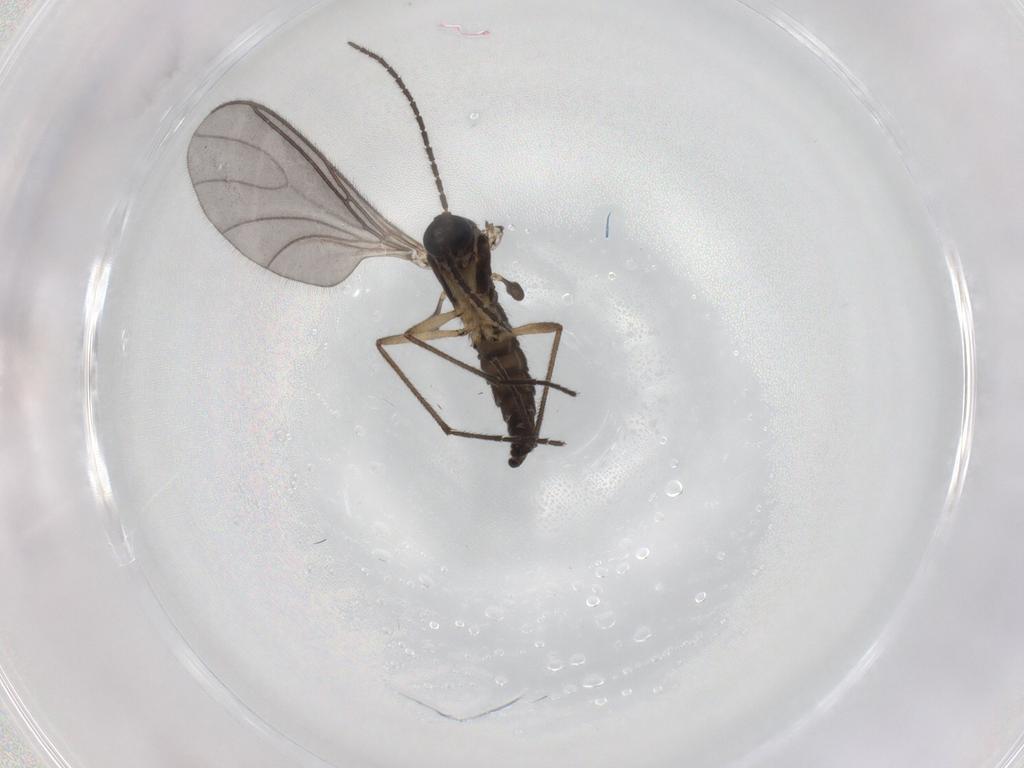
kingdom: Animalia
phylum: Arthropoda
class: Insecta
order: Diptera
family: Sciaridae
